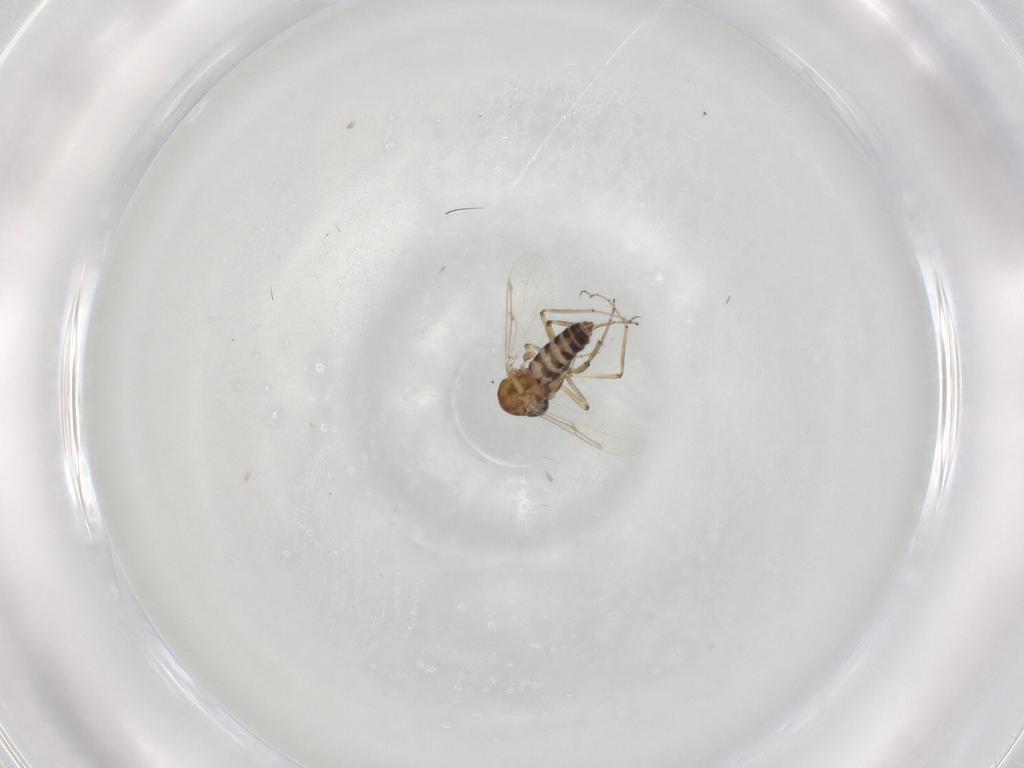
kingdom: Animalia
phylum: Arthropoda
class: Insecta
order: Diptera
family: Ceratopogonidae
